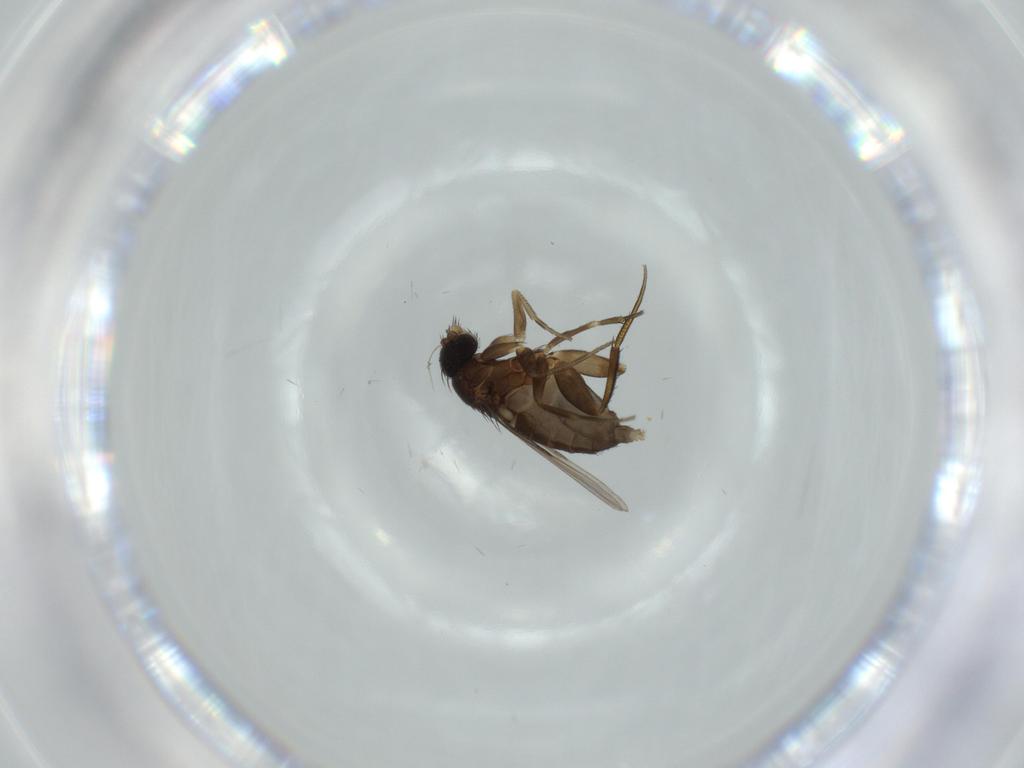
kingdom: Animalia
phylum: Arthropoda
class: Insecta
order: Diptera
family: Phoridae
